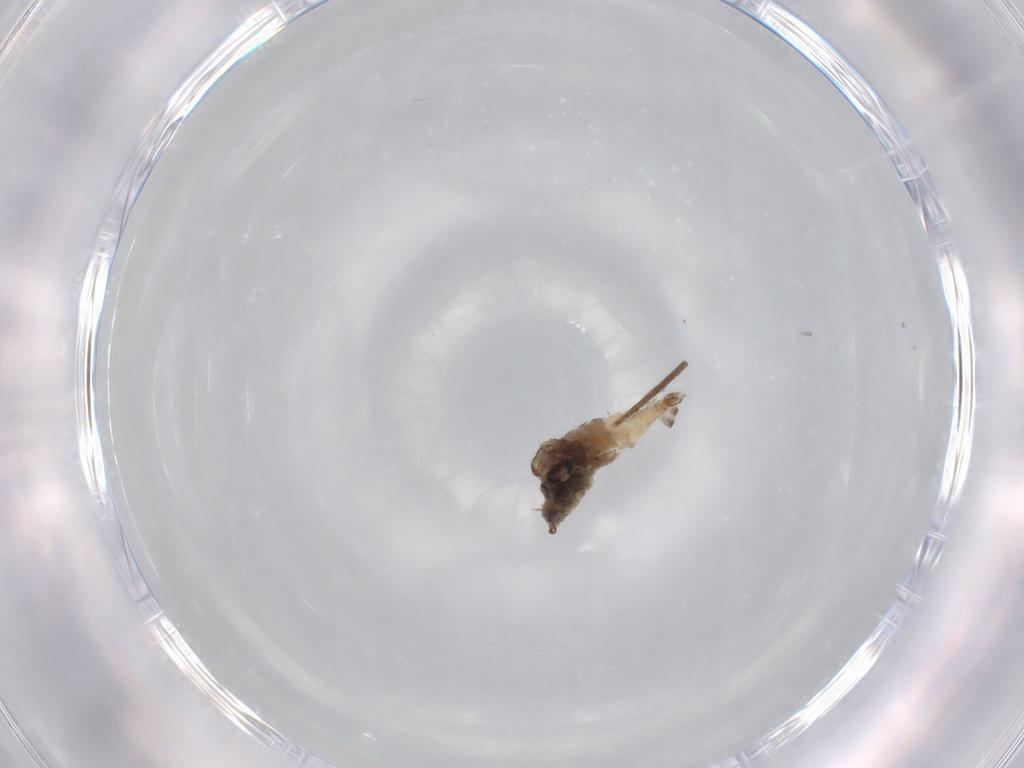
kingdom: Animalia
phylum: Arthropoda
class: Insecta
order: Diptera
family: Dolichopodidae
